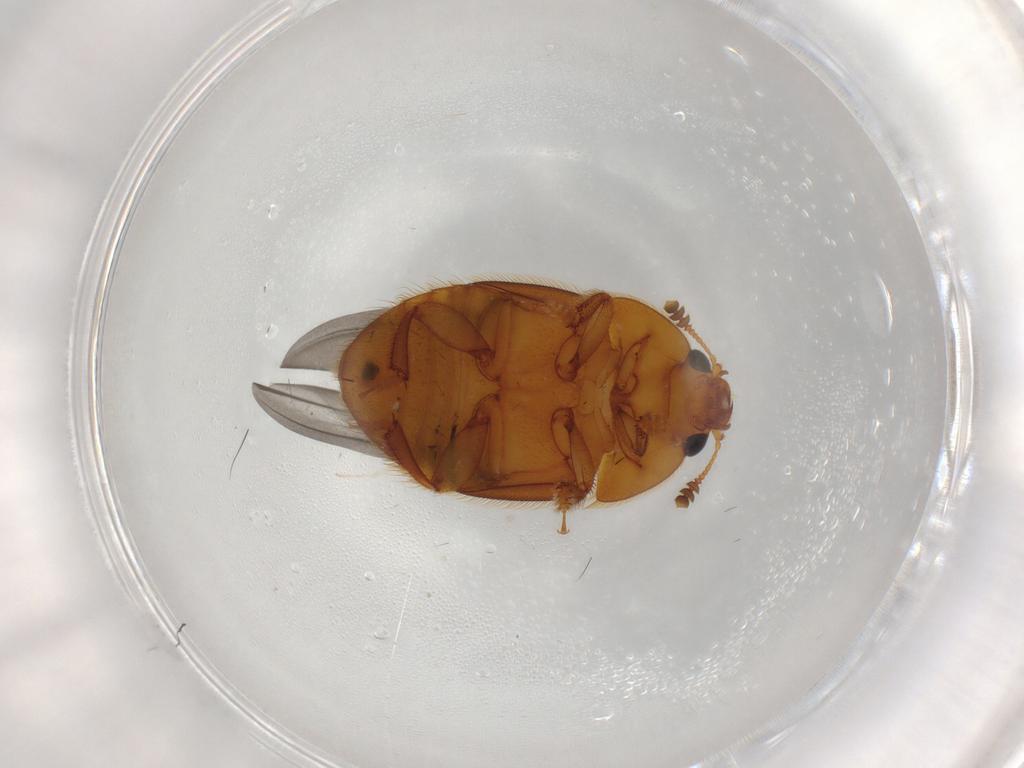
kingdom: Animalia
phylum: Arthropoda
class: Insecta
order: Coleoptera
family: Nitidulidae
